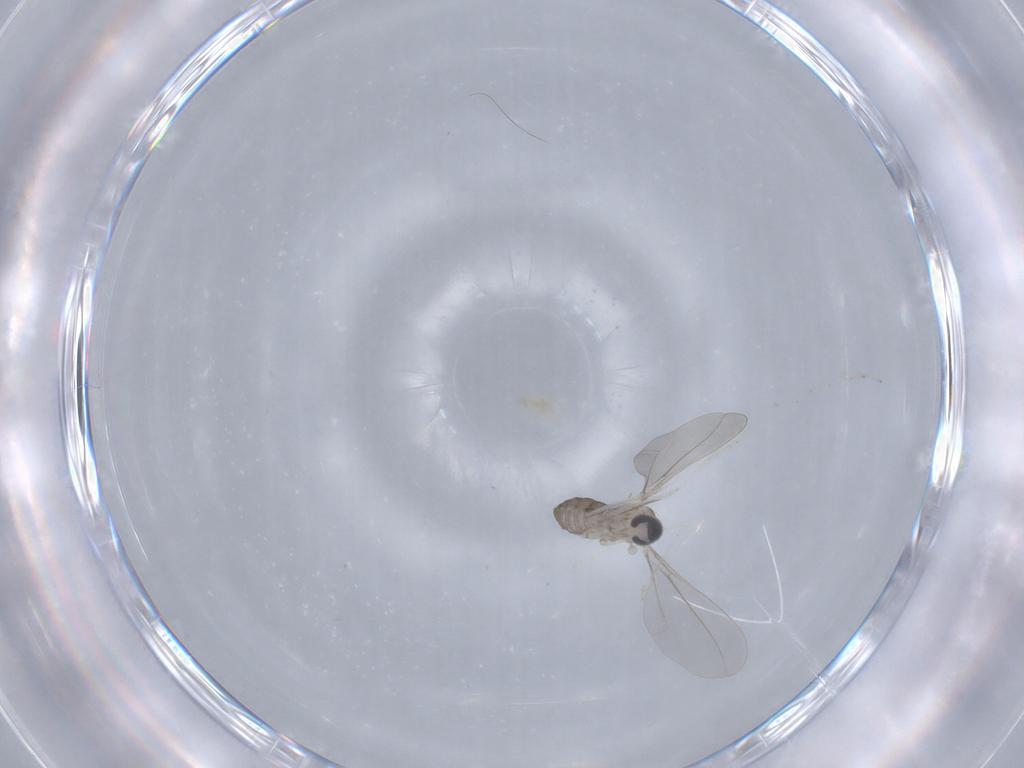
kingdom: Animalia
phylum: Arthropoda
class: Insecta
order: Diptera
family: Cecidomyiidae
